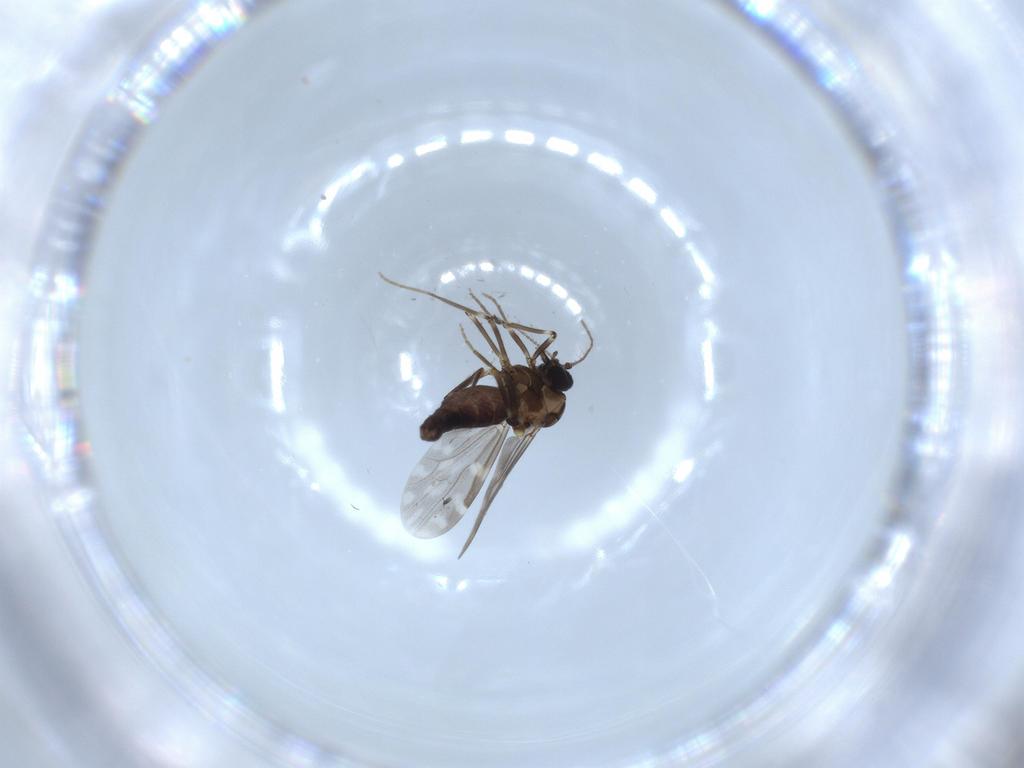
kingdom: Animalia
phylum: Arthropoda
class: Insecta
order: Diptera
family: Ceratopogonidae
